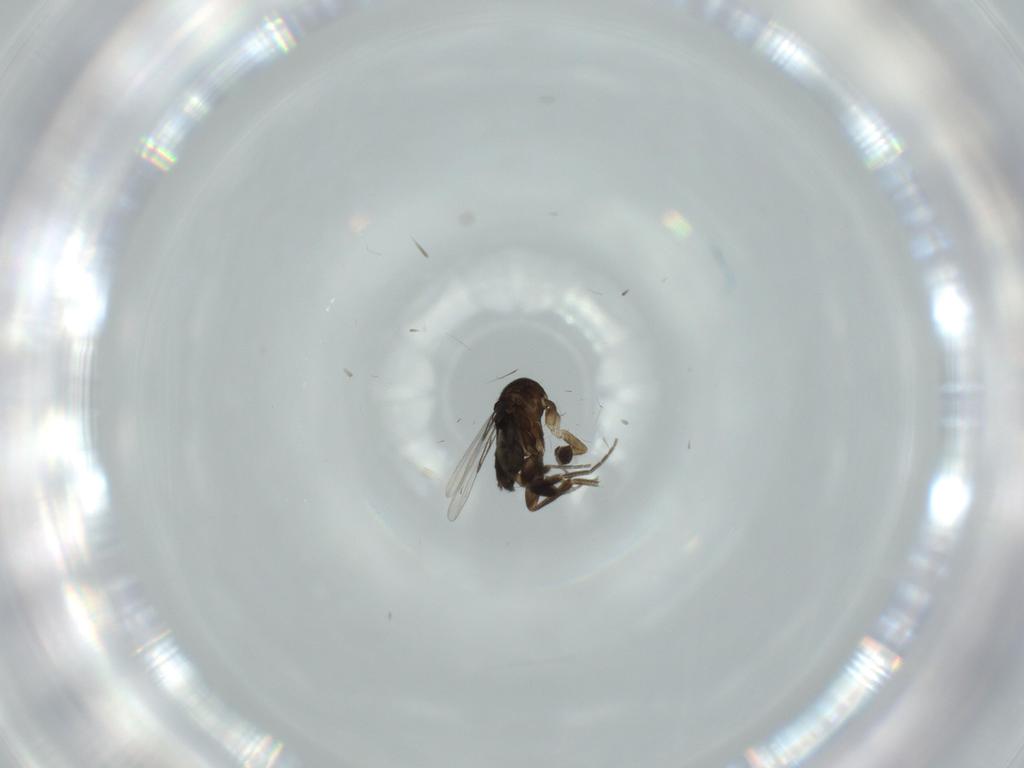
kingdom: Animalia
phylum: Arthropoda
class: Insecta
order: Diptera
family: Phoridae
